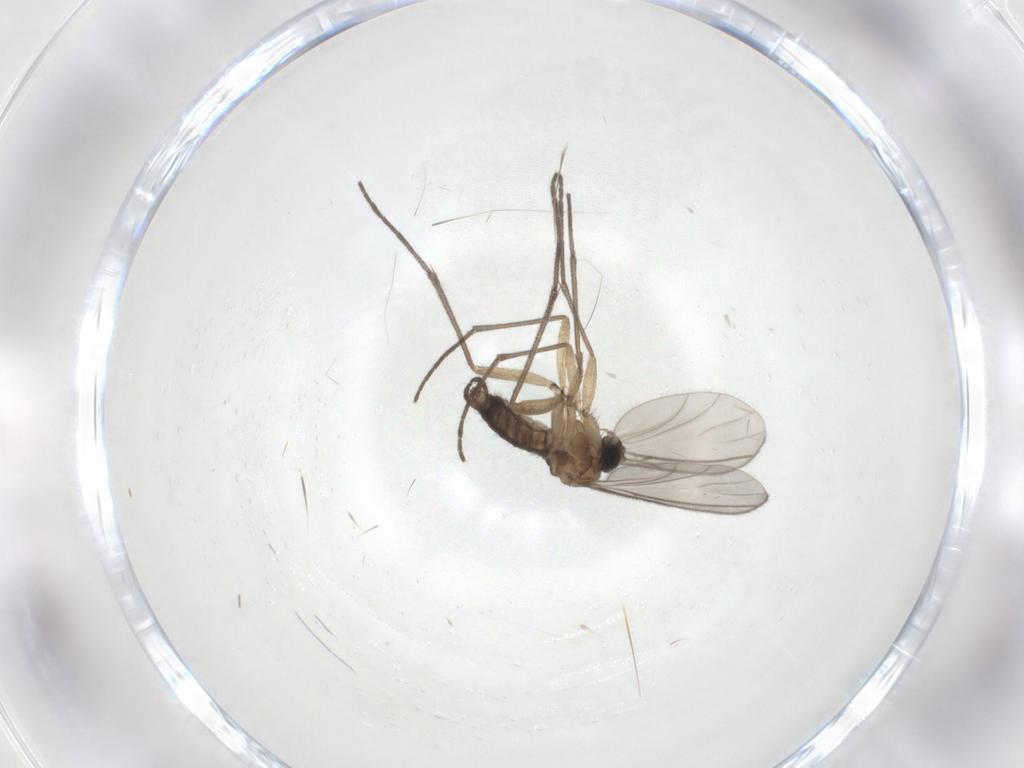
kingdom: Animalia
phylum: Arthropoda
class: Insecta
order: Diptera
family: Sciaridae
